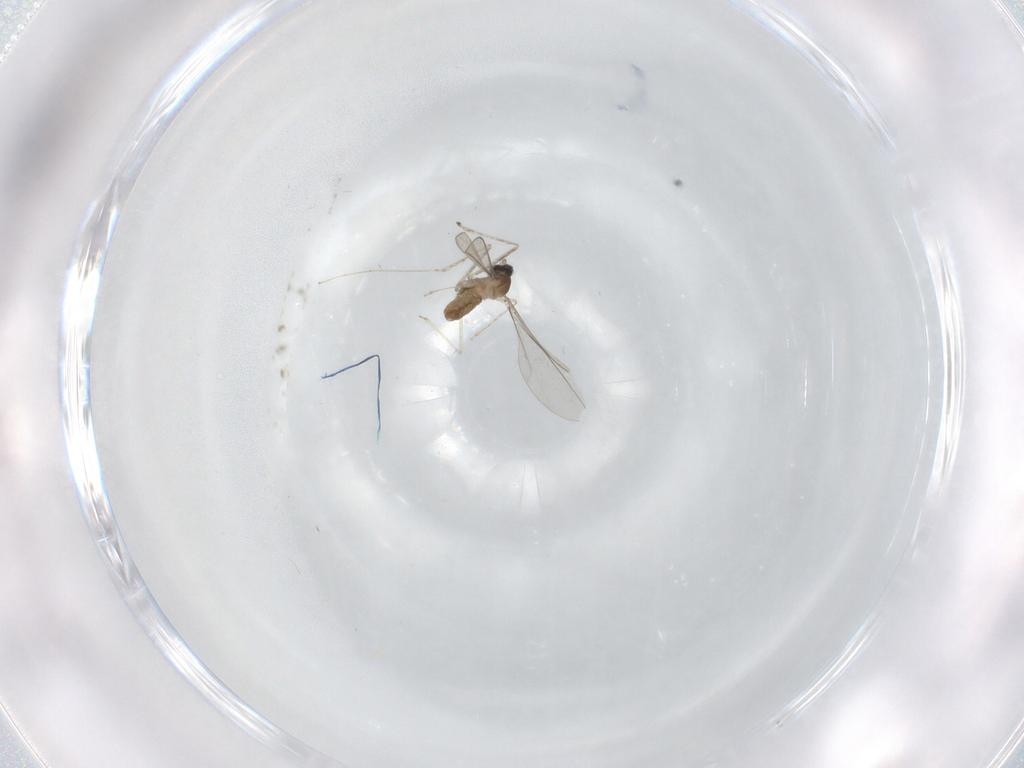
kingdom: Animalia
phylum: Arthropoda
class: Insecta
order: Diptera
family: Cecidomyiidae
